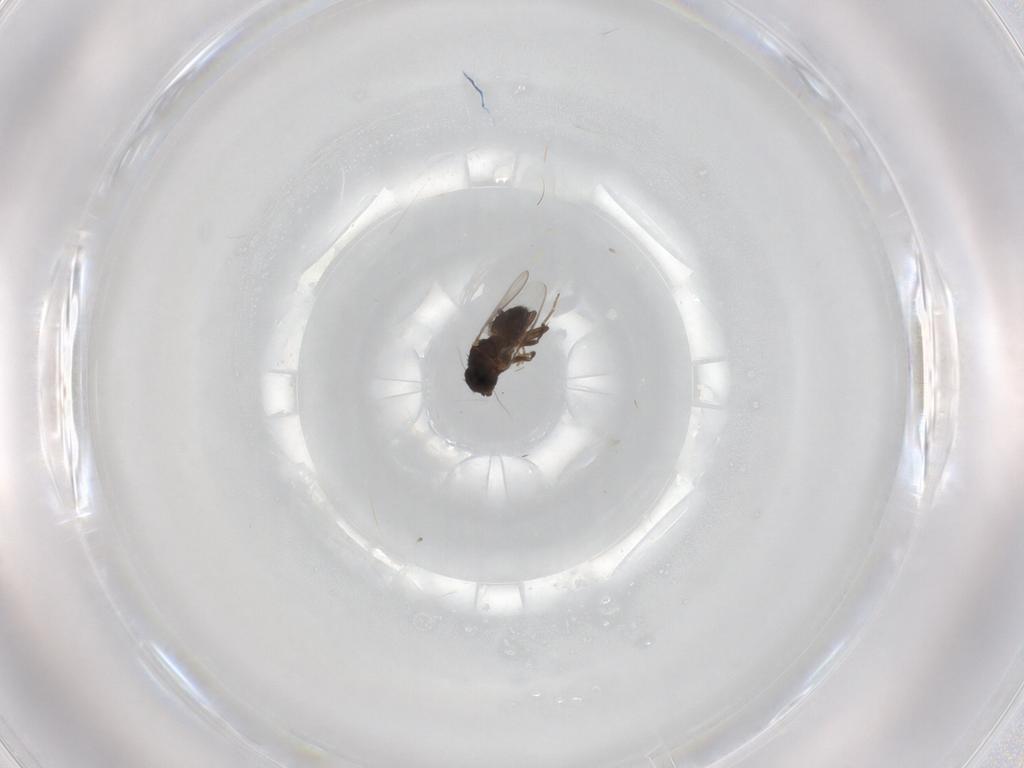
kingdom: Animalia
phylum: Arthropoda
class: Insecta
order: Diptera
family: Sphaeroceridae
